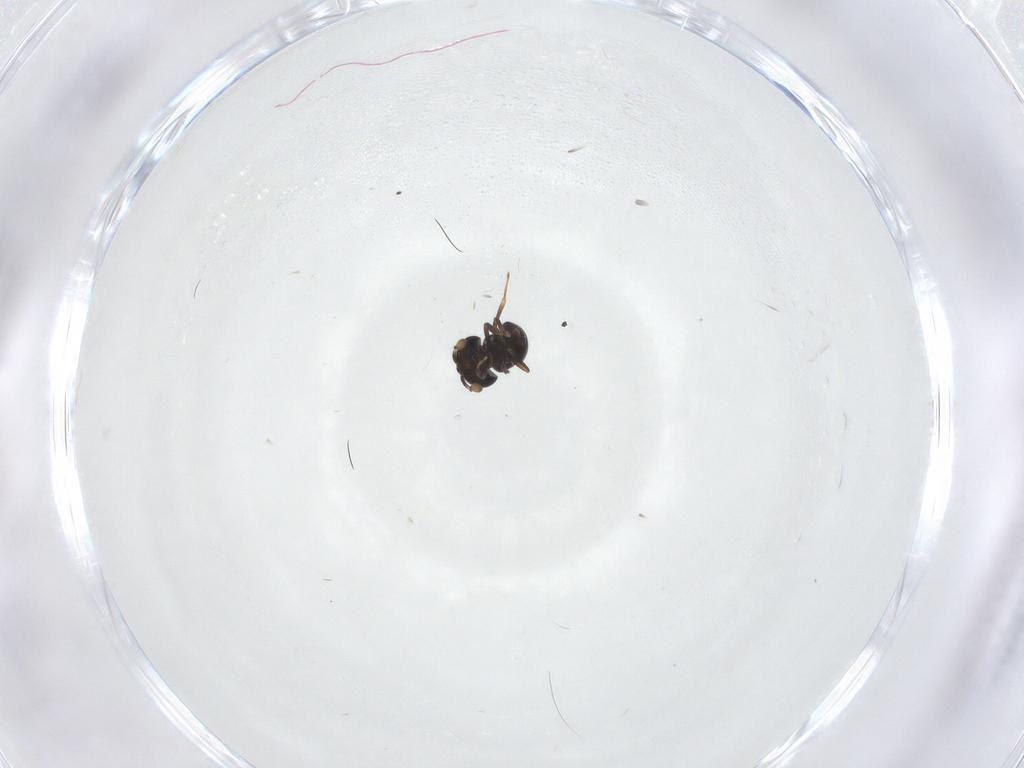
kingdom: Animalia
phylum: Arthropoda
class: Insecta
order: Hymenoptera
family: Scelionidae
